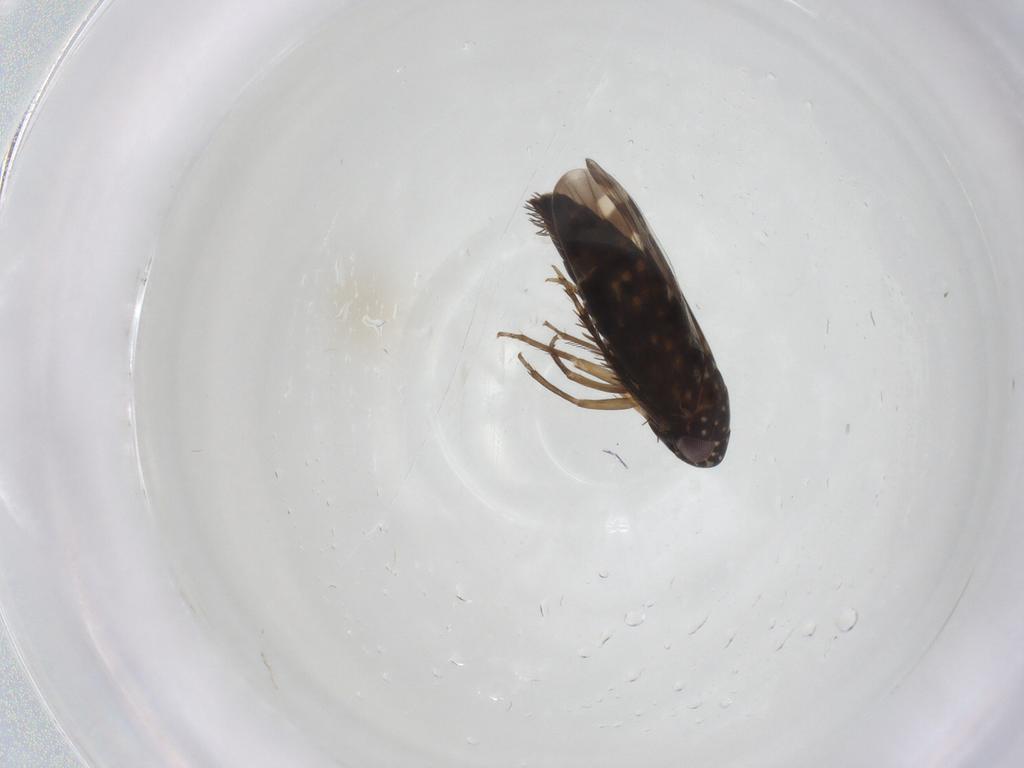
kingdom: Animalia
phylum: Arthropoda
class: Insecta
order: Hemiptera
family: Cicadellidae
